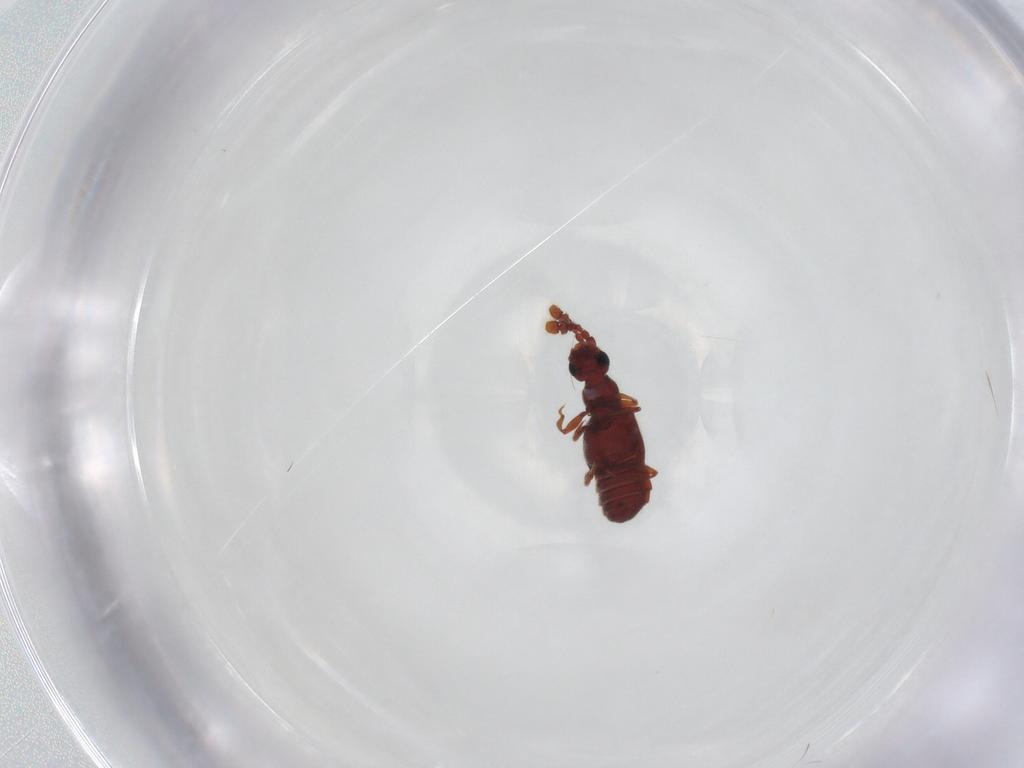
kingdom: Animalia
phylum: Arthropoda
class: Insecta
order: Coleoptera
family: Staphylinidae
